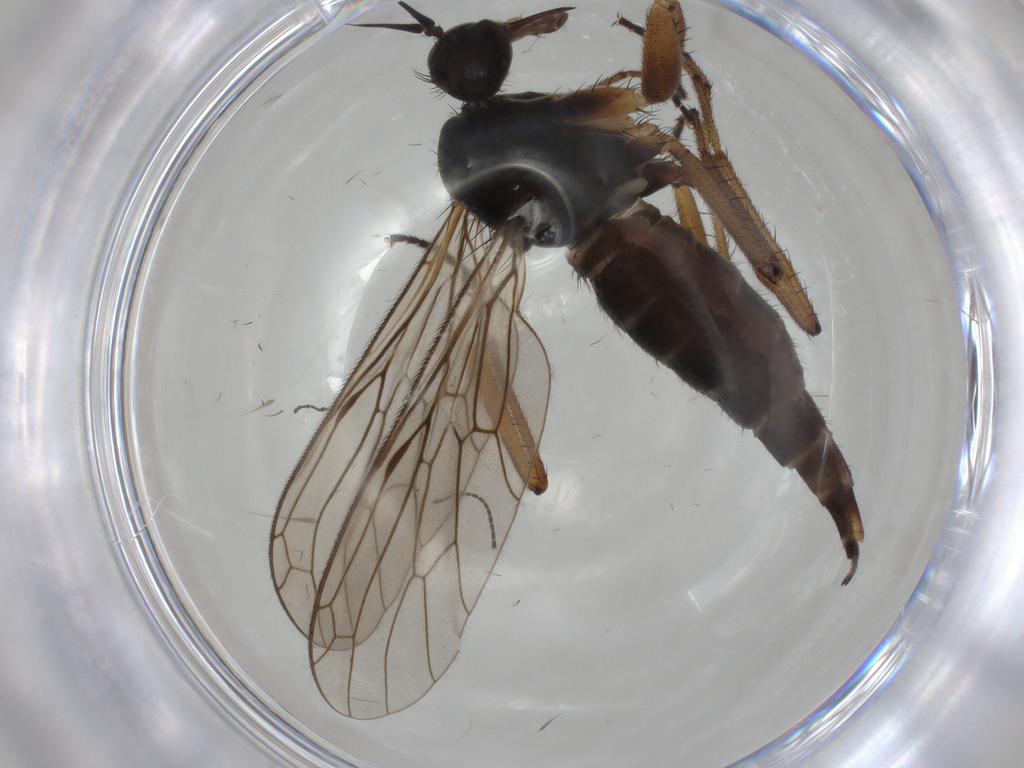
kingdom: Animalia
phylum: Arthropoda
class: Insecta
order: Diptera
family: Empididae
